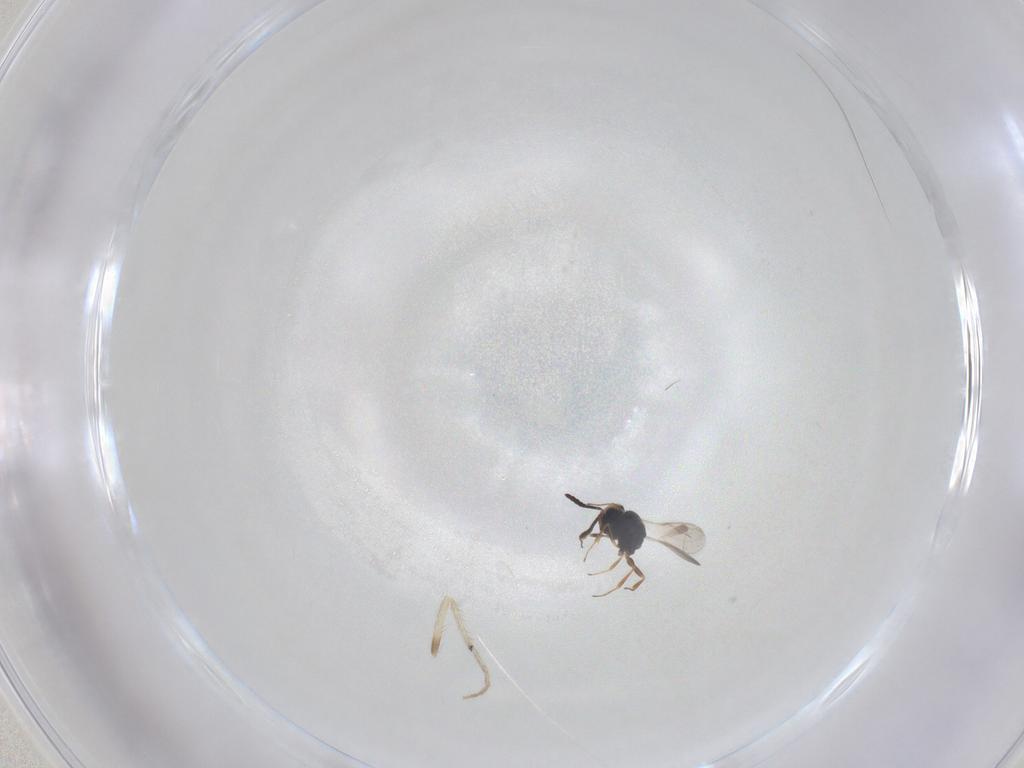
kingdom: Animalia
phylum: Arthropoda
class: Insecta
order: Hymenoptera
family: Scelionidae
